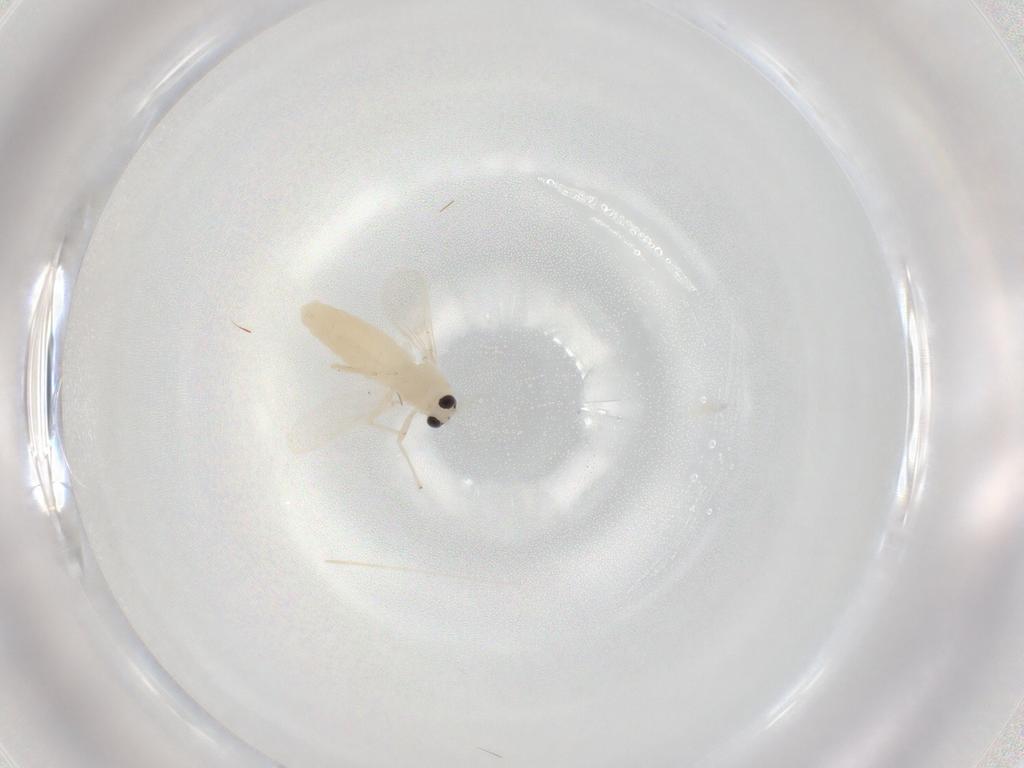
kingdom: Animalia
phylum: Arthropoda
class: Insecta
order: Diptera
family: Chironomidae
